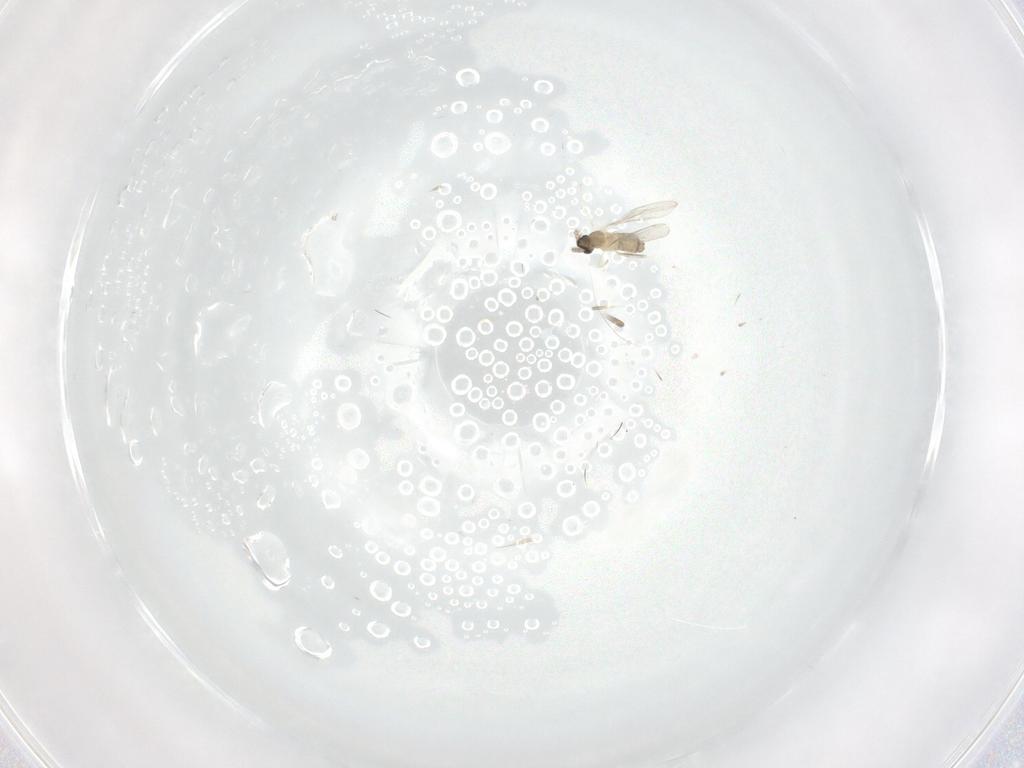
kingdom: Animalia
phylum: Arthropoda
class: Insecta
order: Diptera
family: Cecidomyiidae
